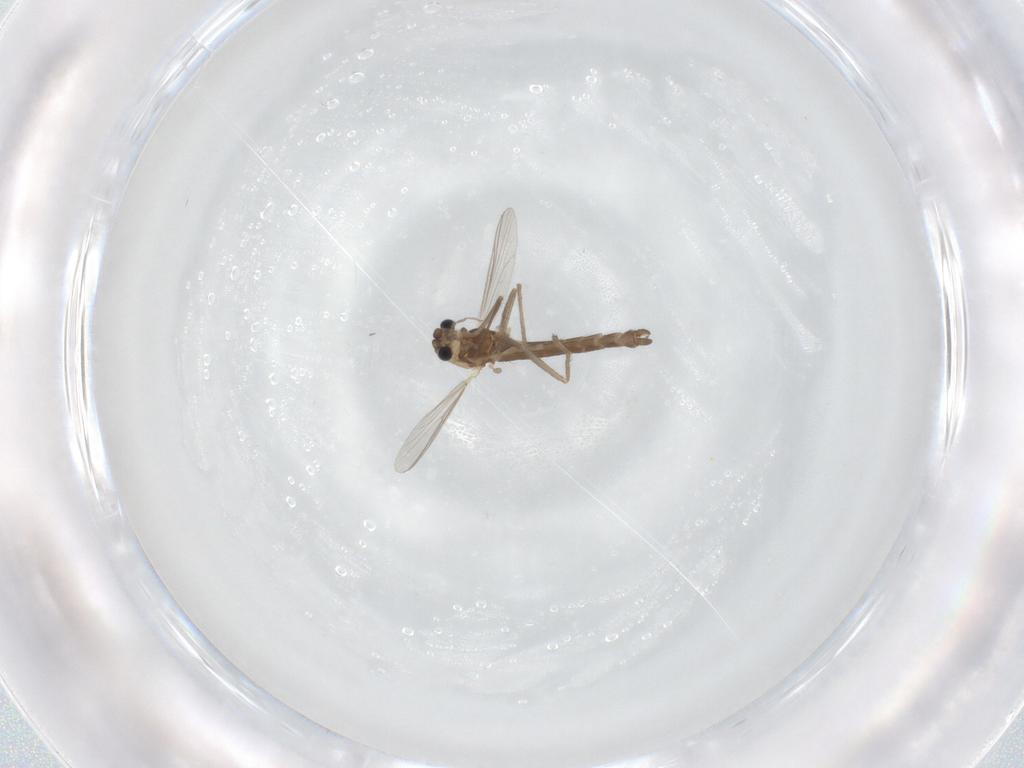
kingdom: Animalia
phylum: Arthropoda
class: Insecta
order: Diptera
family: Chironomidae
